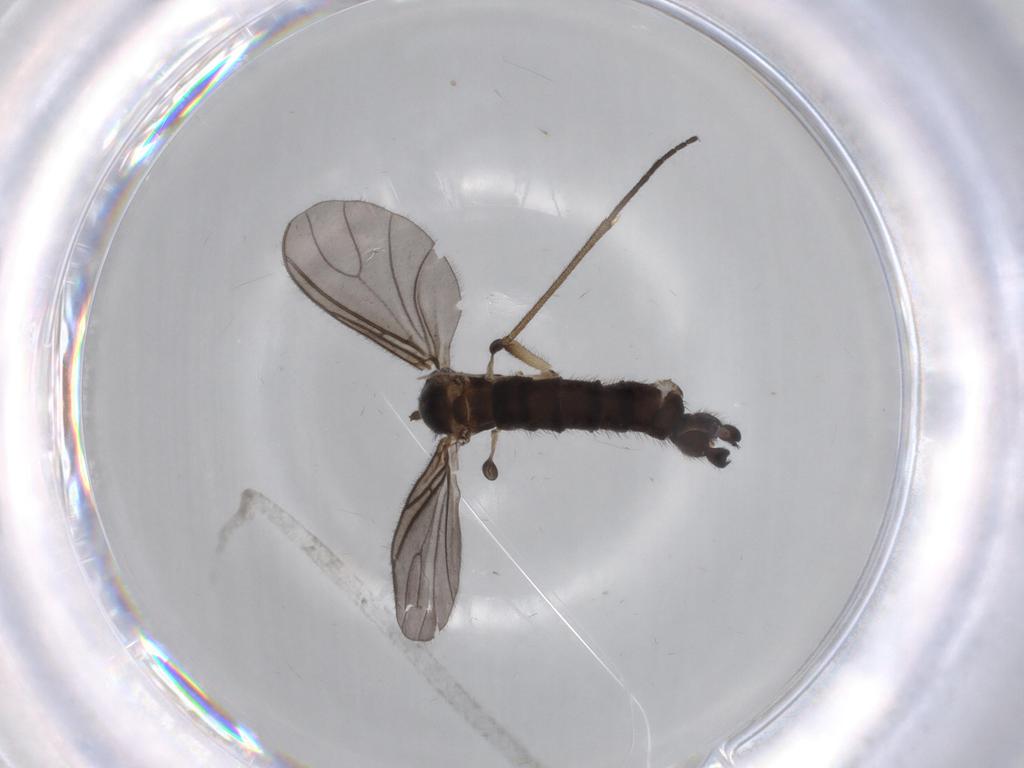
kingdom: Animalia
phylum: Arthropoda
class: Insecta
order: Diptera
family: Sciaridae
